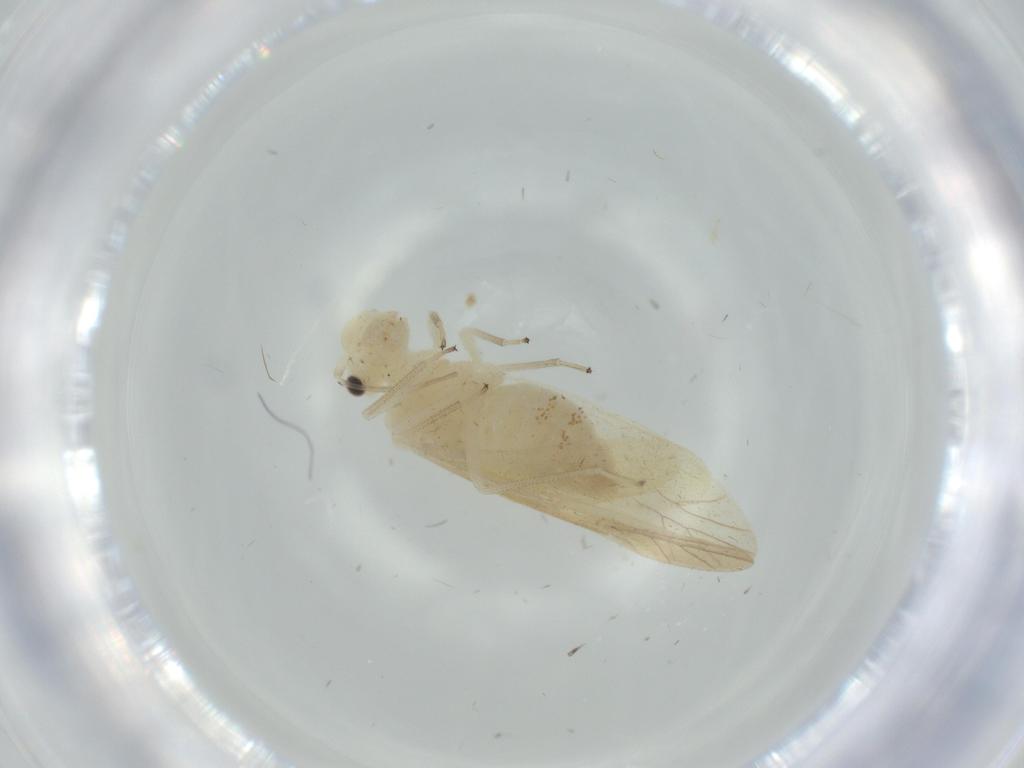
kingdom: Animalia
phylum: Arthropoda
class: Insecta
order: Psocodea
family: Caeciliusidae
